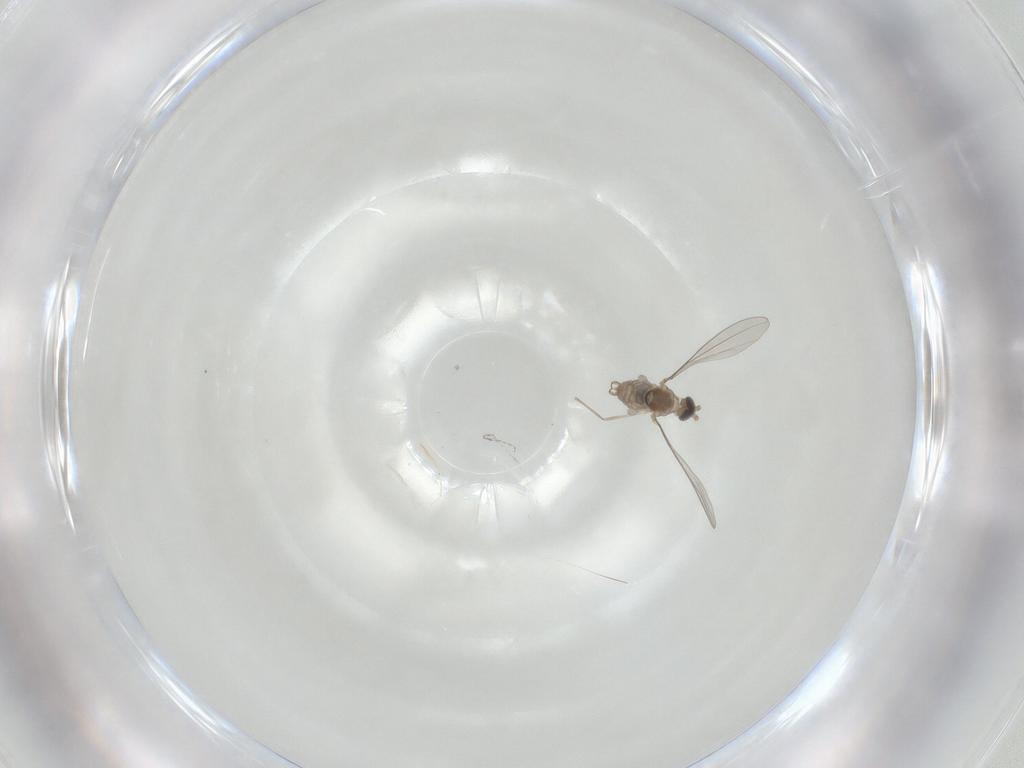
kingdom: Animalia
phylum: Arthropoda
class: Insecta
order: Diptera
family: Cecidomyiidae
